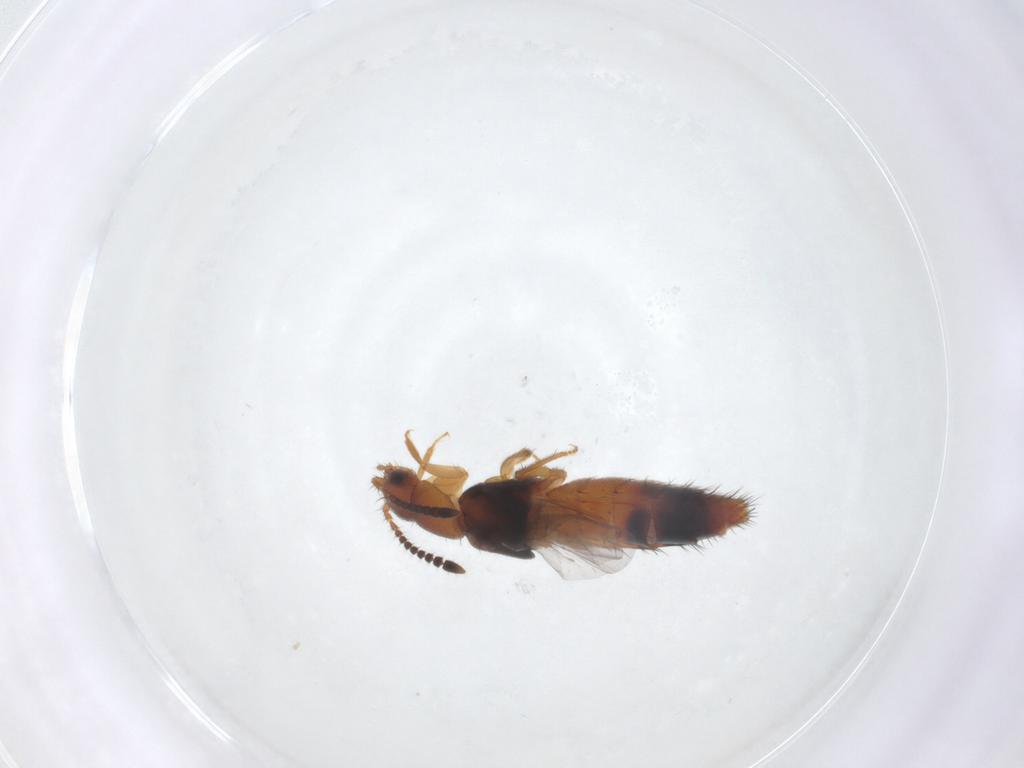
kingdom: Animalia
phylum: Arthropoda
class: Insecta
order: Coleoptera
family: Staphylinidae
